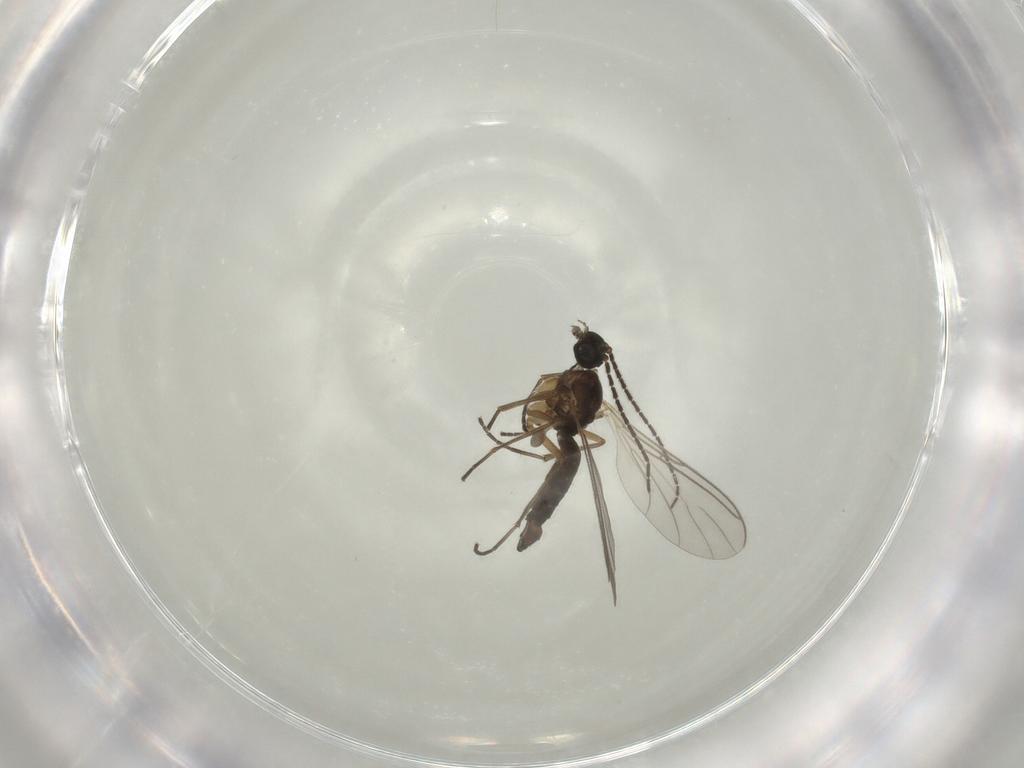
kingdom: Animalia
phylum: Arthropoda
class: Insecta
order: Diptera
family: Sciaridae
